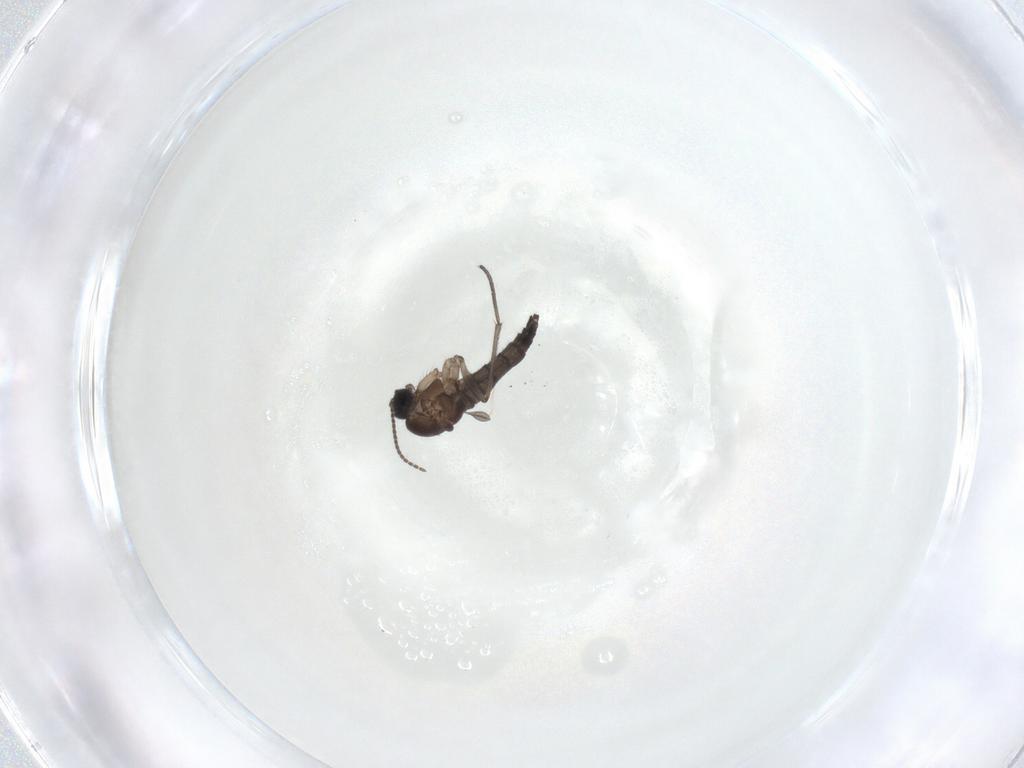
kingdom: Animalia
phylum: Arthropoda
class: Insecta
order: Diptera
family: Sciaridae
